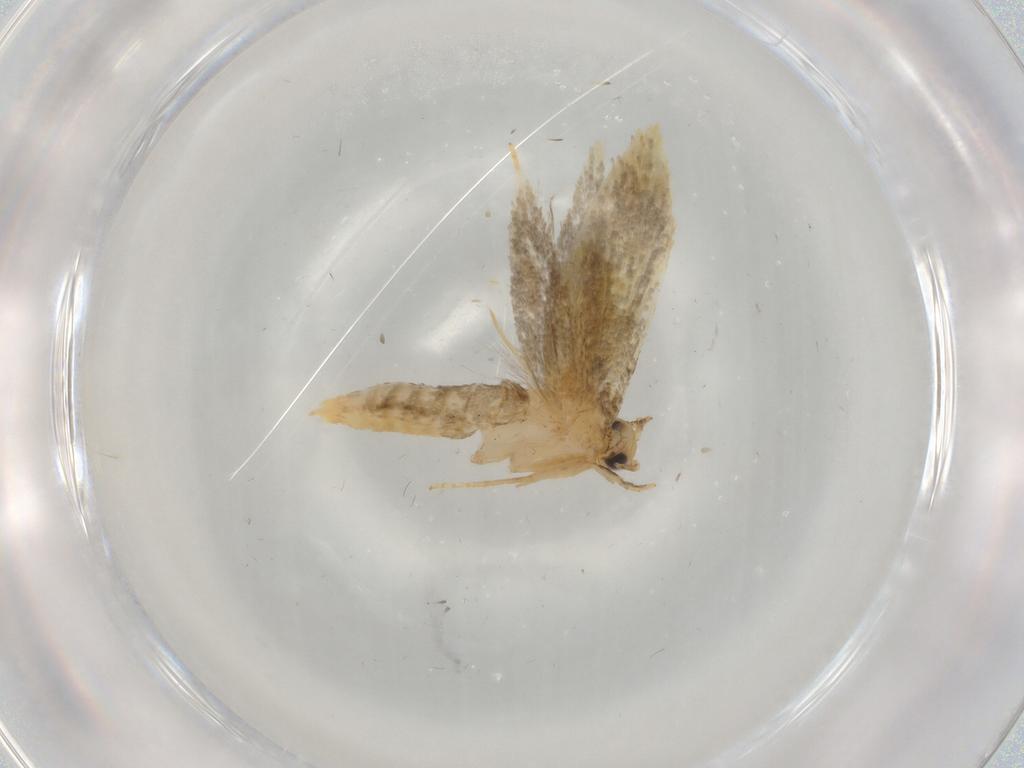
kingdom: Animalia
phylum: Arthropoda
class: Insecta
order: Lepidoptera
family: Tineidae
